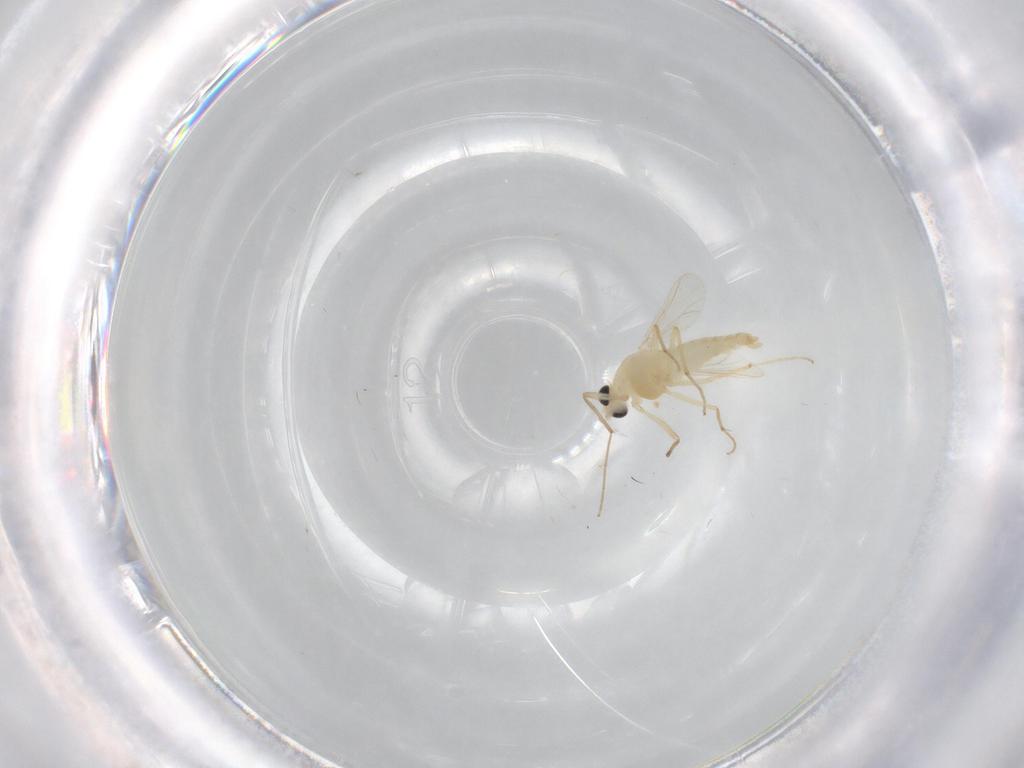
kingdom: Animalia
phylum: Arthropoda
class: Insecta
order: Diptera
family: Chironomidae
